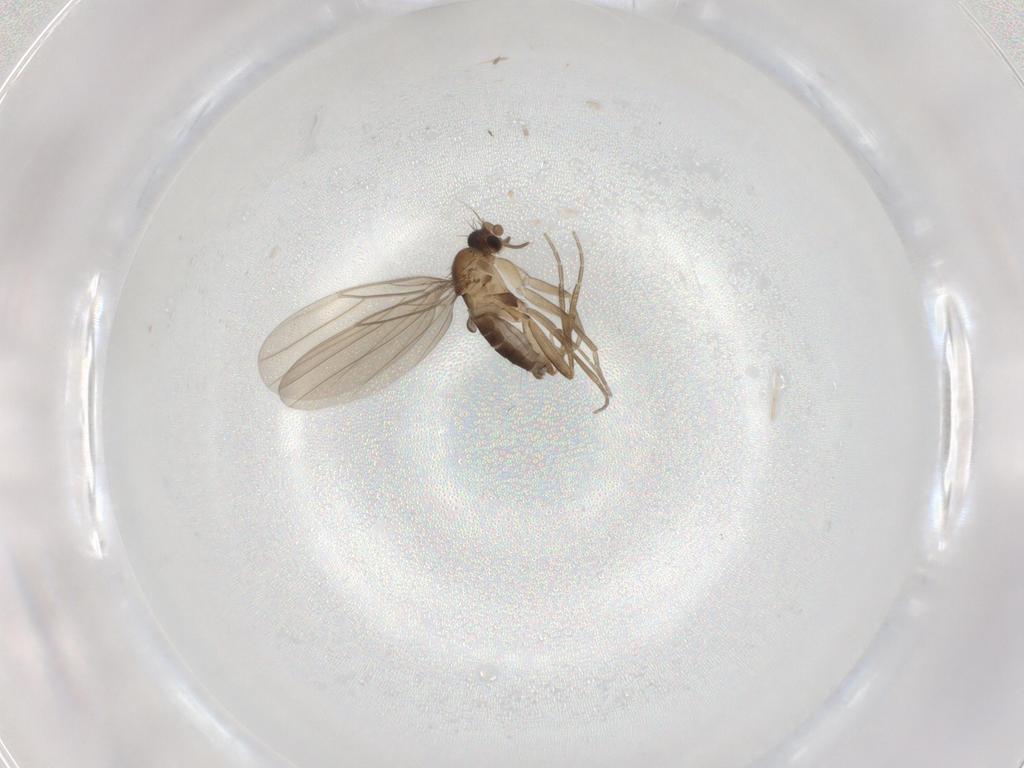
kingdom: Animalia
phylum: Arthropoda
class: Insecta
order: Diptera
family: Phoridae
